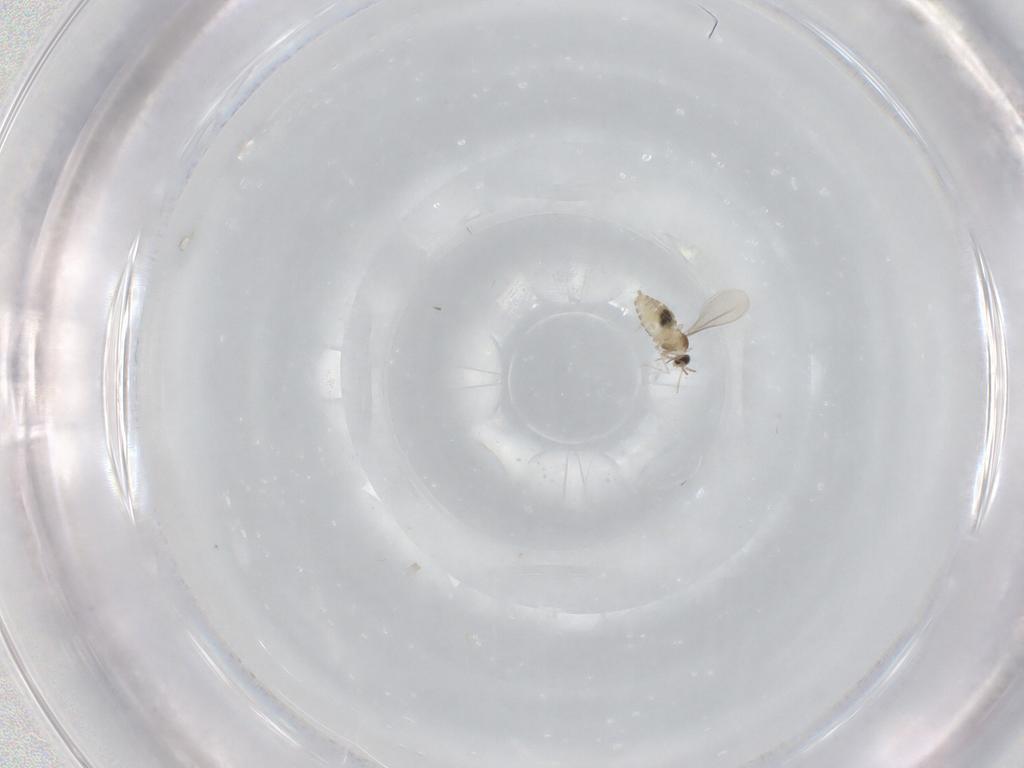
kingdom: Animalia
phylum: Arthropoda
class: Insecta
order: Diptera
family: Cecidomyiidae
